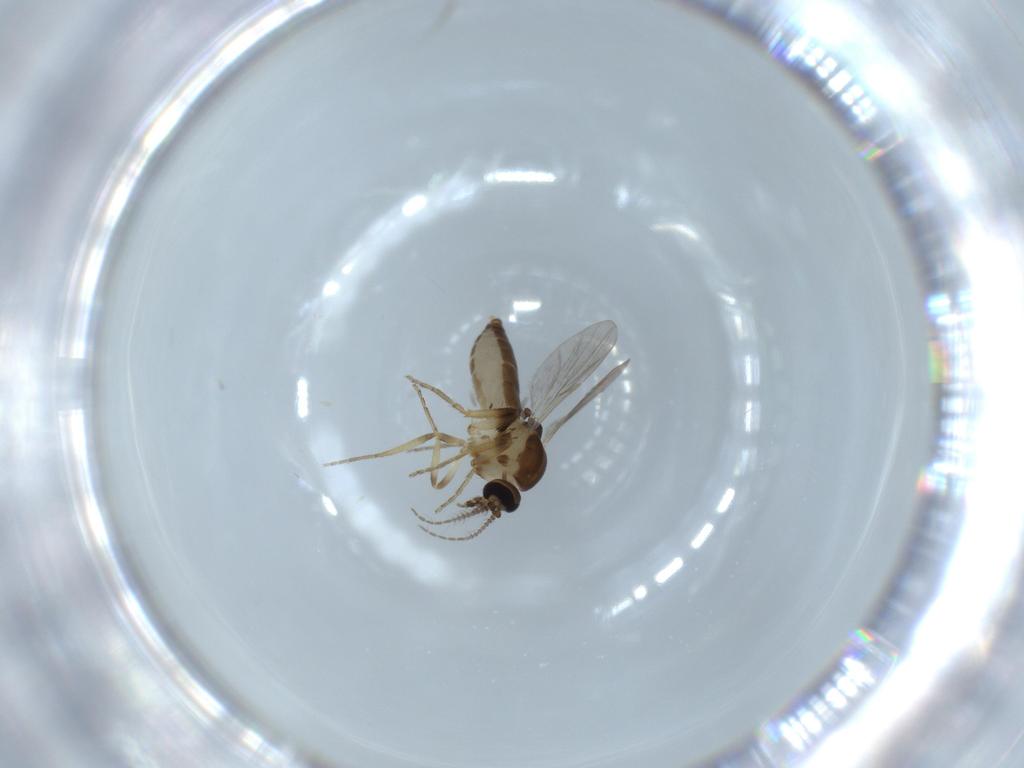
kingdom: Animalia
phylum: Arthropoda
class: Insecta
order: Diptera
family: Ceratopogonidae
